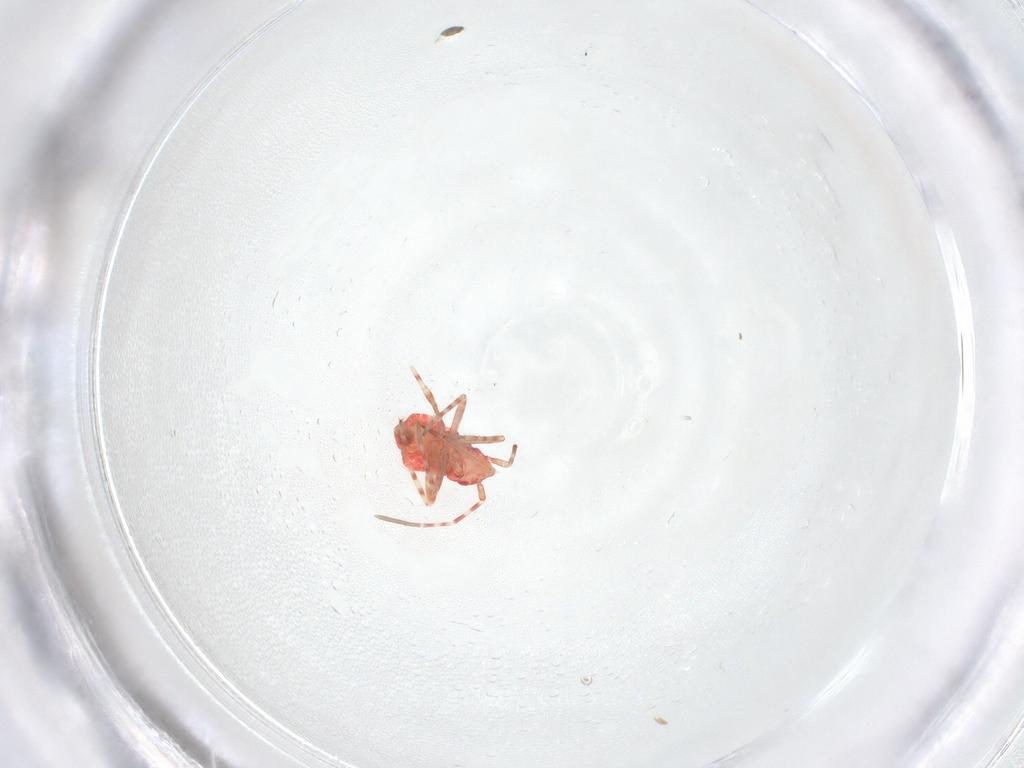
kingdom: Animalia
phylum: Arthropoda
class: Insecta
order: Hemiptera
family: Miridae
